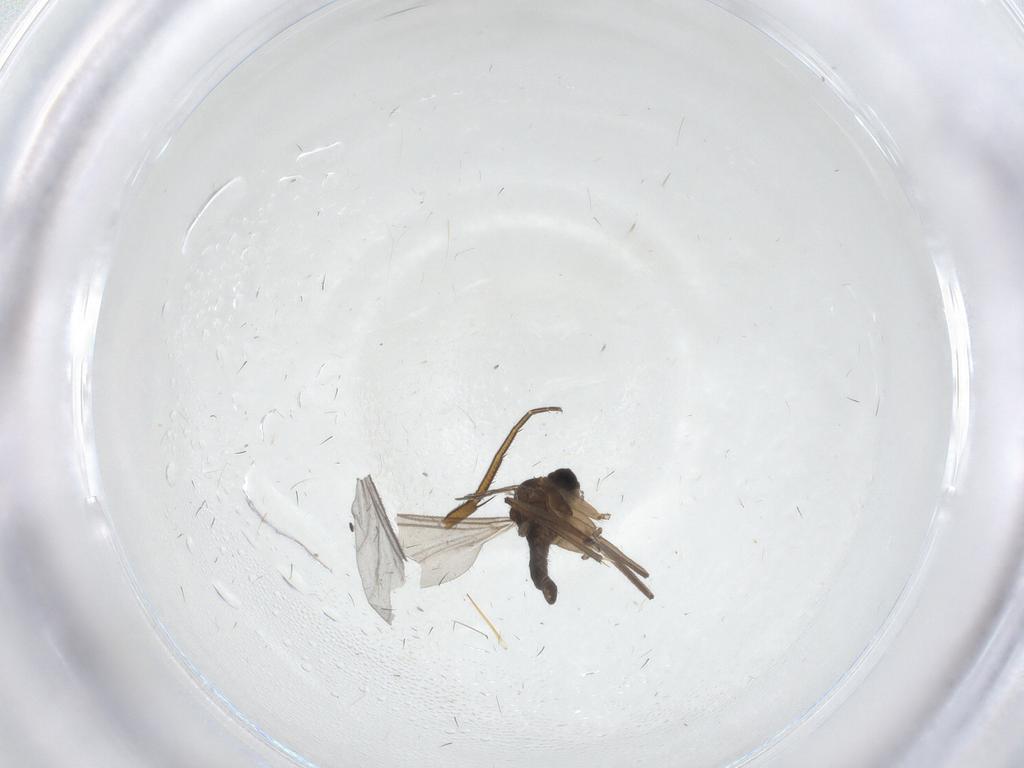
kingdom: Animalia
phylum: Arthropoda
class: Insecta
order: Diptera
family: Phoridae
